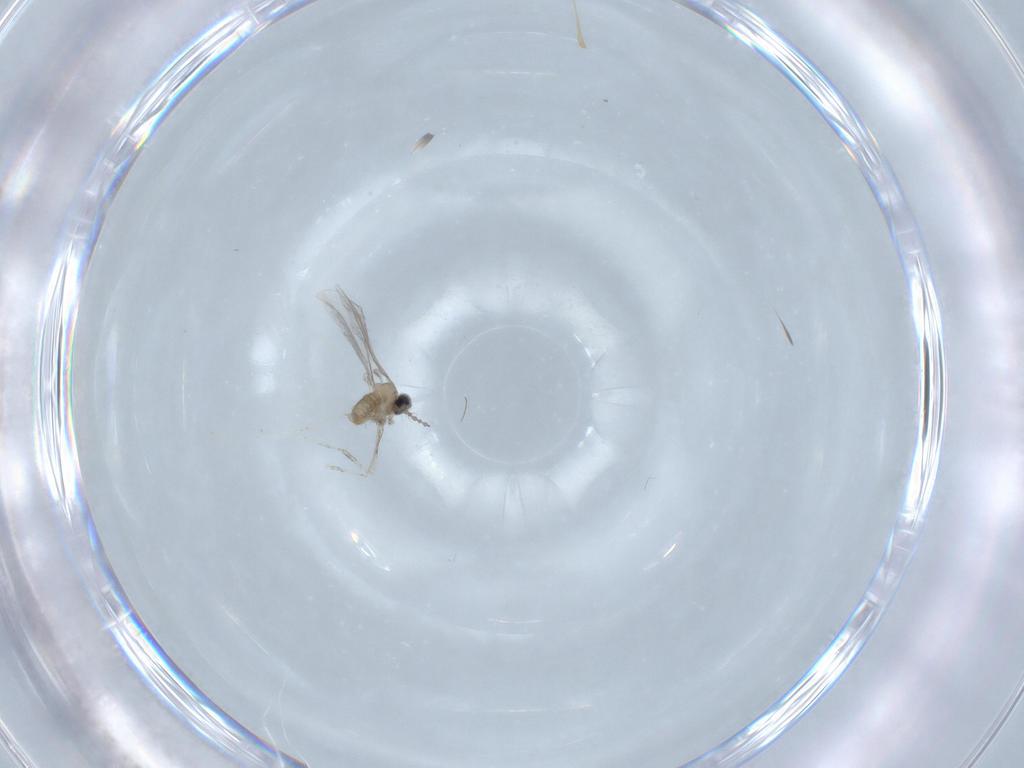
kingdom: Animalia
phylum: Arthropoda
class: Insecta
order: Diptera
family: Cecidomyiidae
